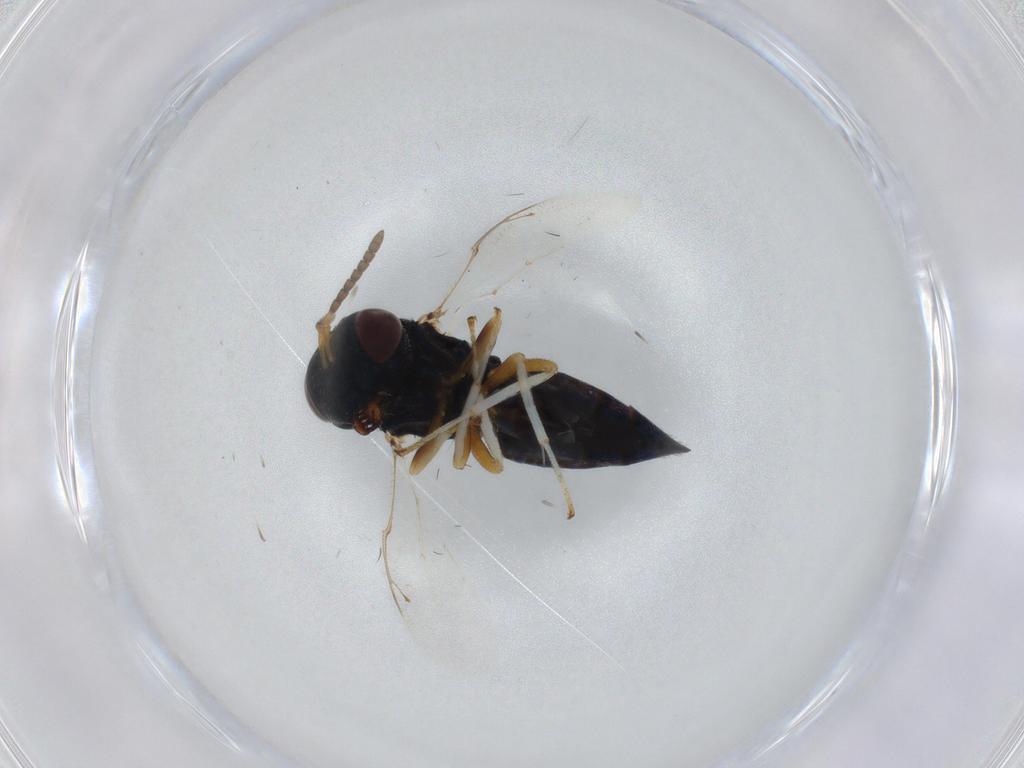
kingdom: Animalia
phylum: Arthropoda
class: Insecta
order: Hymenoptera
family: Pteromalidae
